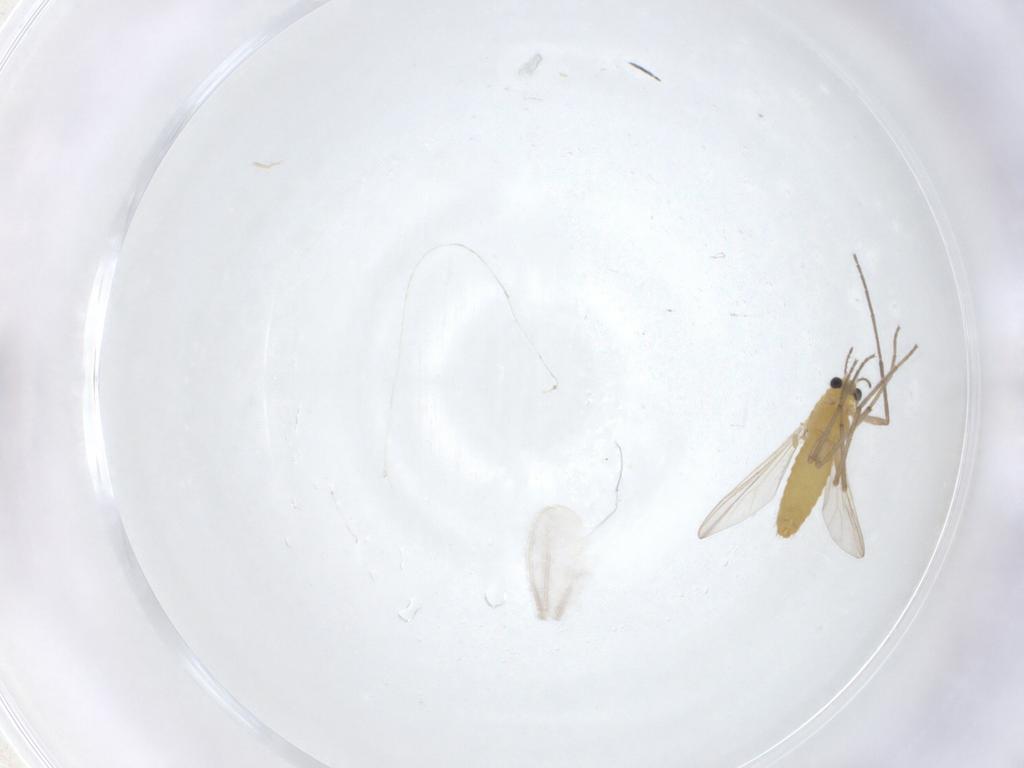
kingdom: Animalia
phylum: Arthropoda
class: Insecta
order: Diptera
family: Cecidomyiidae
